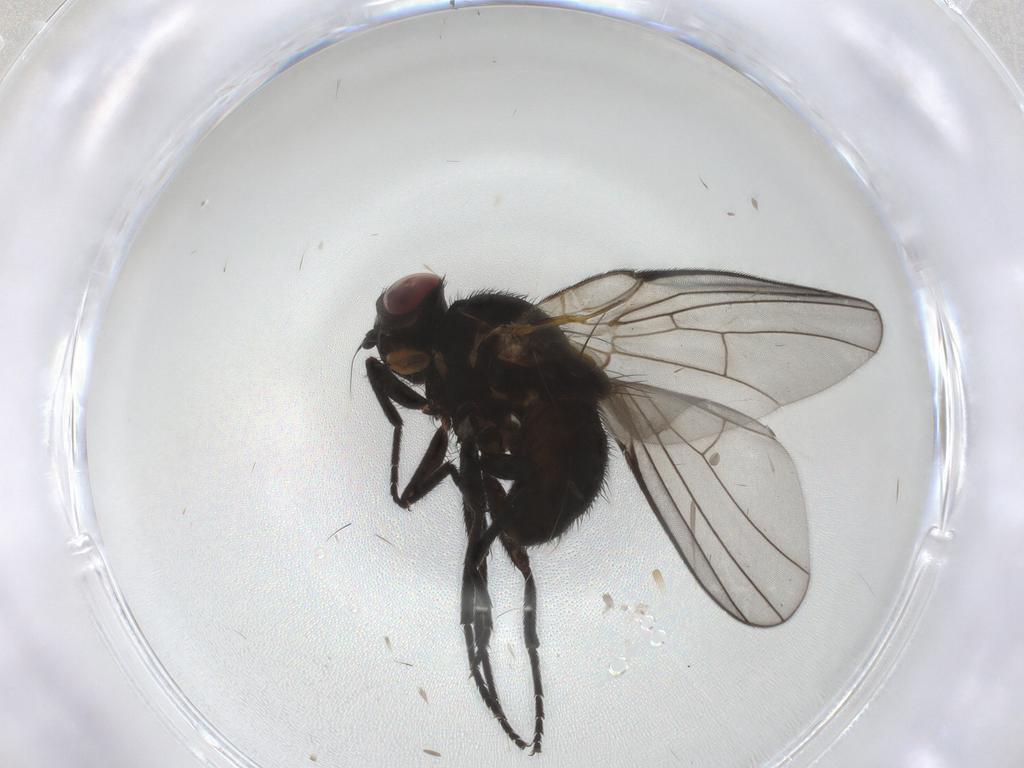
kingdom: Animalia
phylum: Arthropoda
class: Insecta
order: Diptera
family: Agromyzidae
